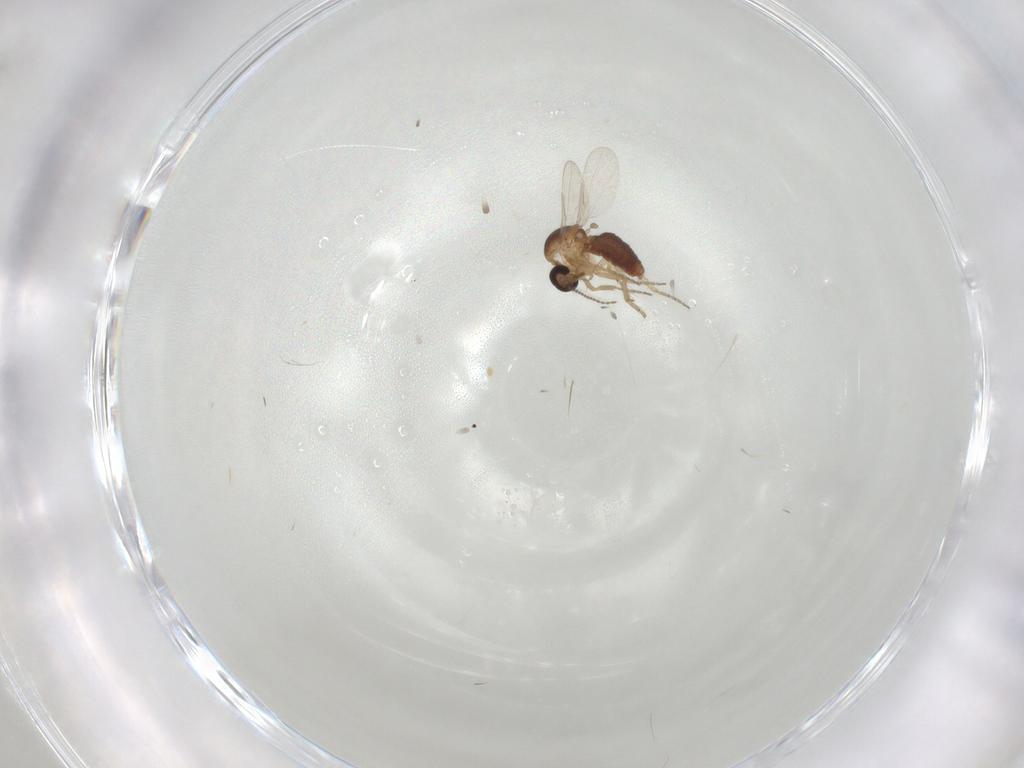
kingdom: Animalia
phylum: Arthropoda
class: Insecta
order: Diptera
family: Ceratopogonidae
